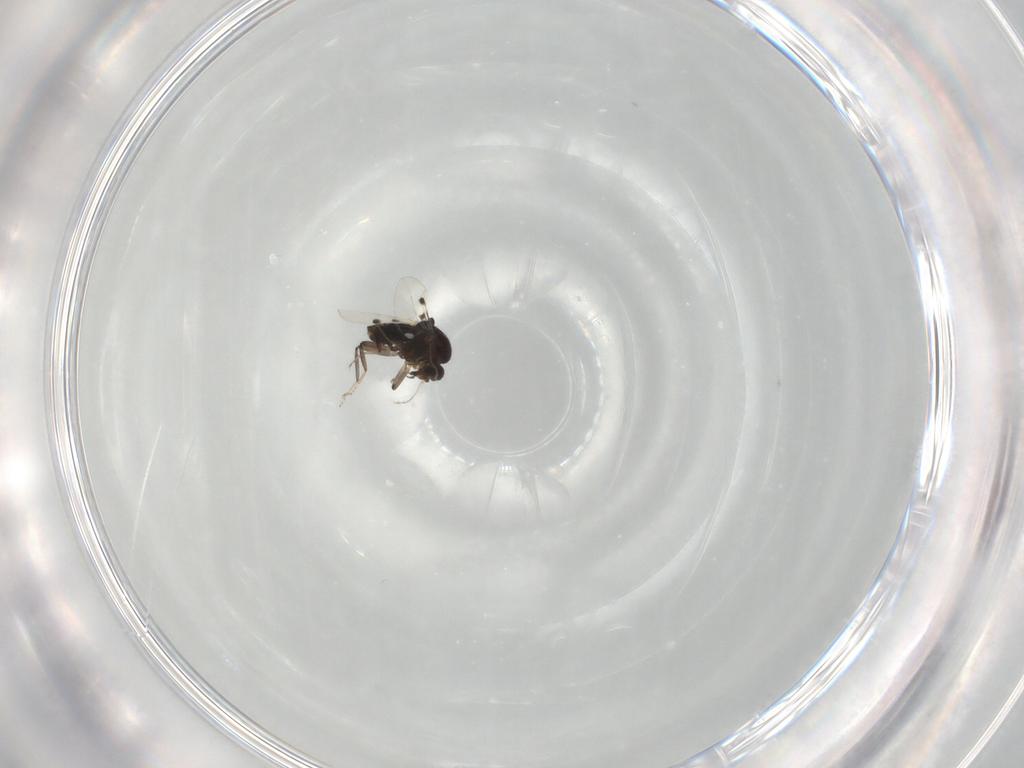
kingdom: Animalia
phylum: Arthropoda
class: Insecta
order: Diptera
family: Ceratopogonidae
